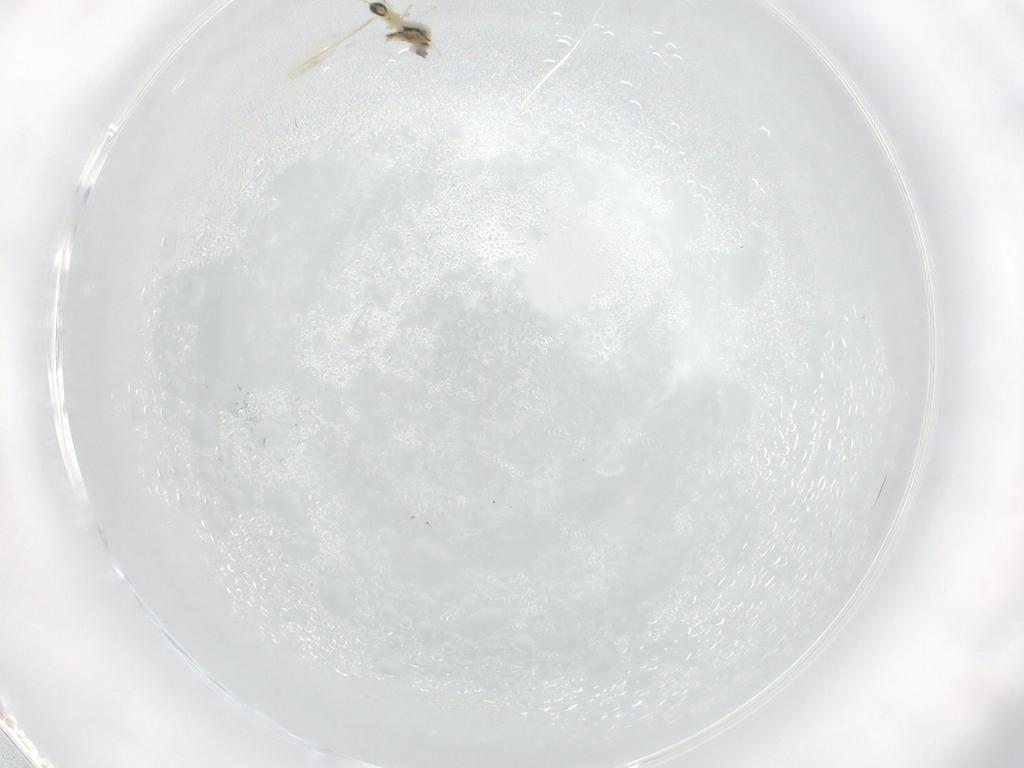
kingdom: Animalia
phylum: Arthropoda
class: Insecta
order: Diptera
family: Cecidomyiidae
